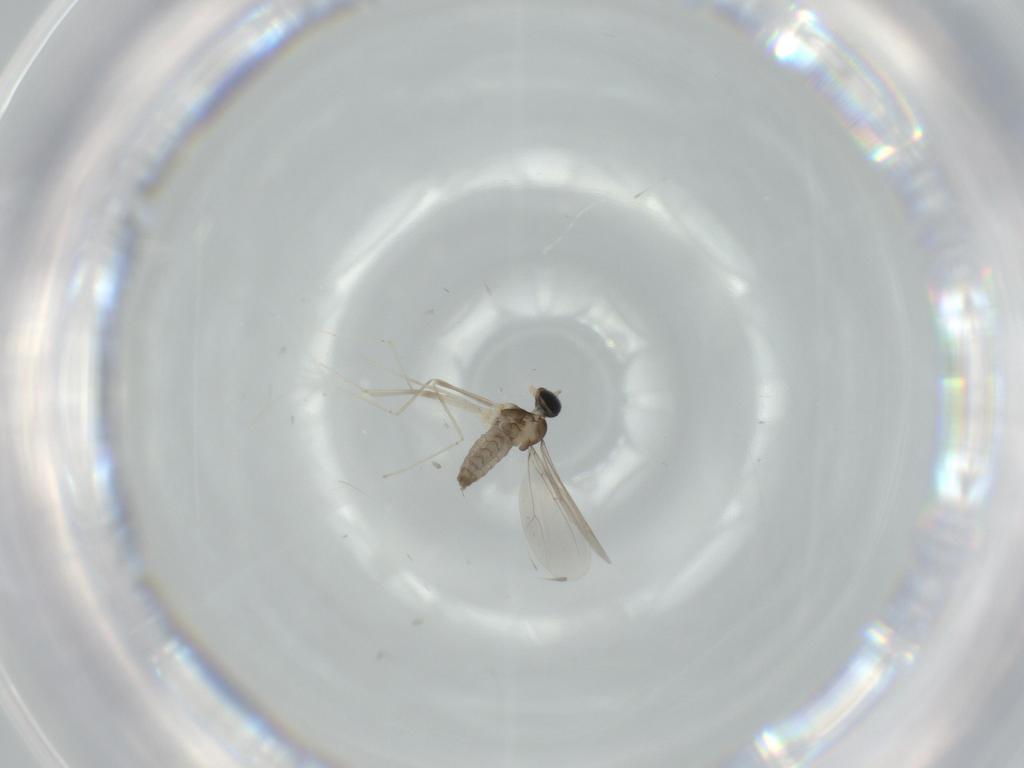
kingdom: Animalia
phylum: Arthropoda
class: Insecta
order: Diptera
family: Cecidomyiidae
